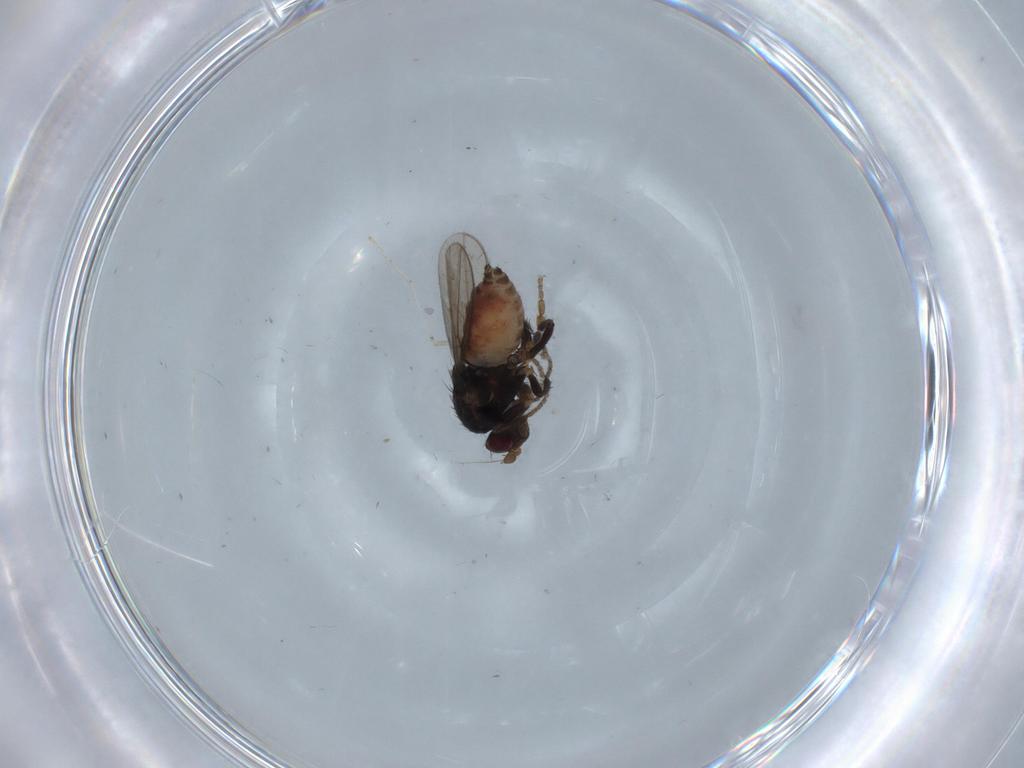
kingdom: Animalia
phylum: Arthropoda
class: Insecta
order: Diptera
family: Sphaeroceridae
